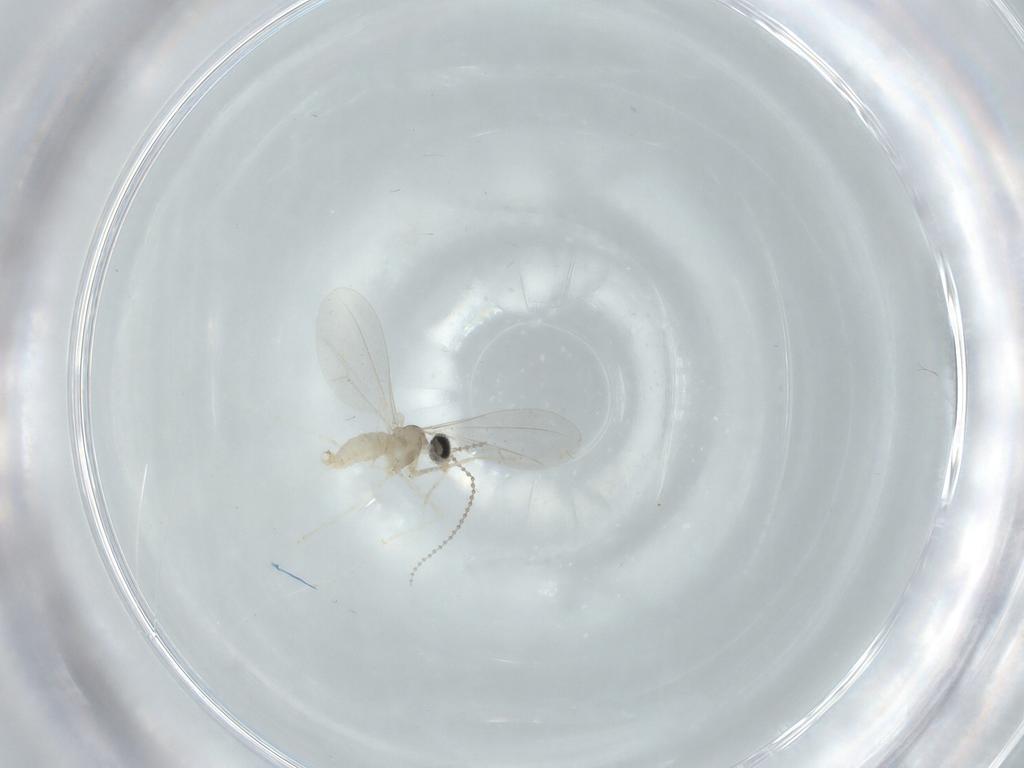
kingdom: Animalia
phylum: Arthropoda
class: Insecta
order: Diptera
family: Cecidomyiidae
